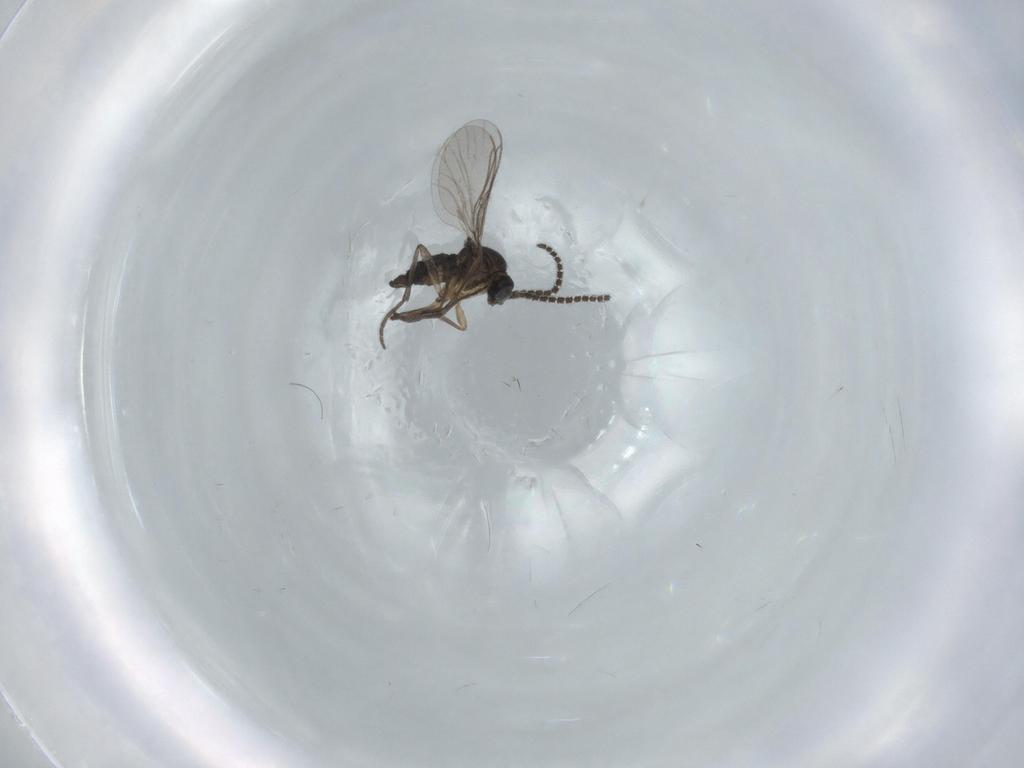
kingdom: Animalia
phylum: Arthropoda
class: Insecta
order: Diptera
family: Sciaridae
